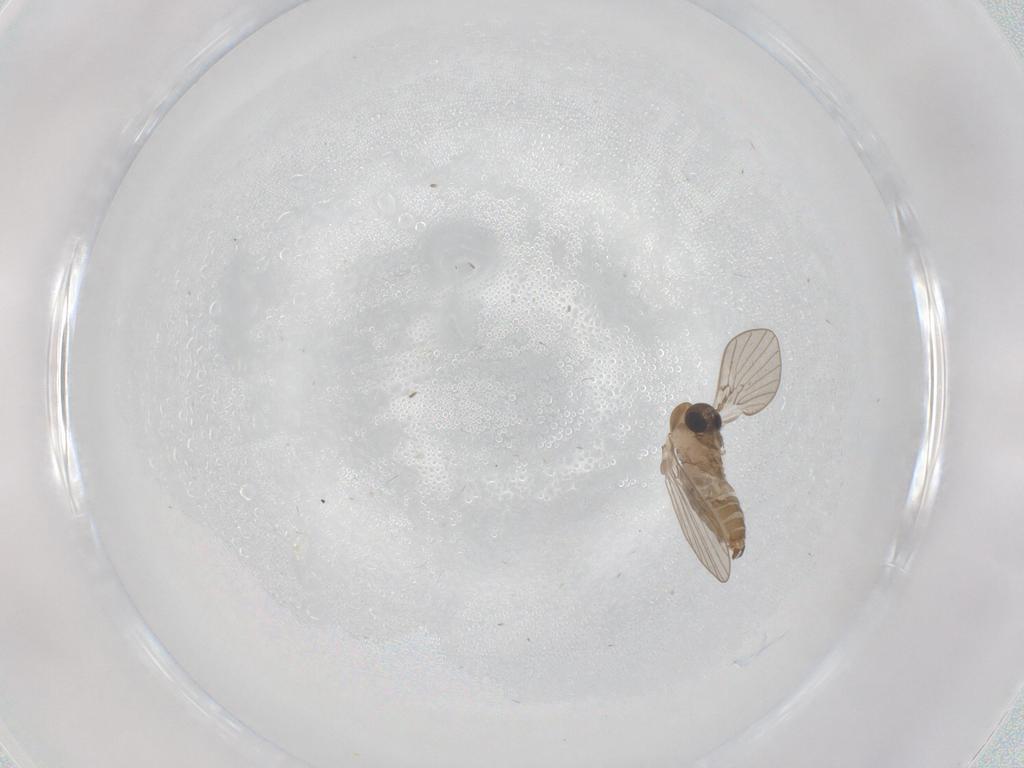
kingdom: Animalia
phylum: Arthropoda
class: Insecta
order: Diptera
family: Psychodidae
